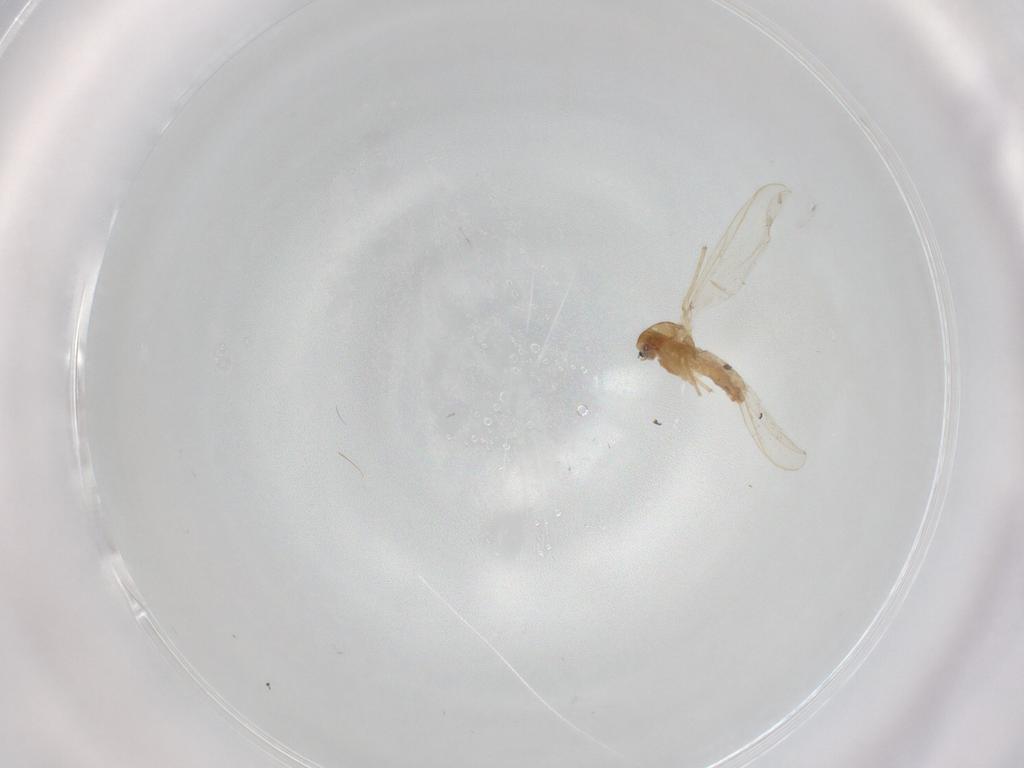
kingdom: Animalia
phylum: Arthropoda
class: Insecta
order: Diptera
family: Chironomidae
